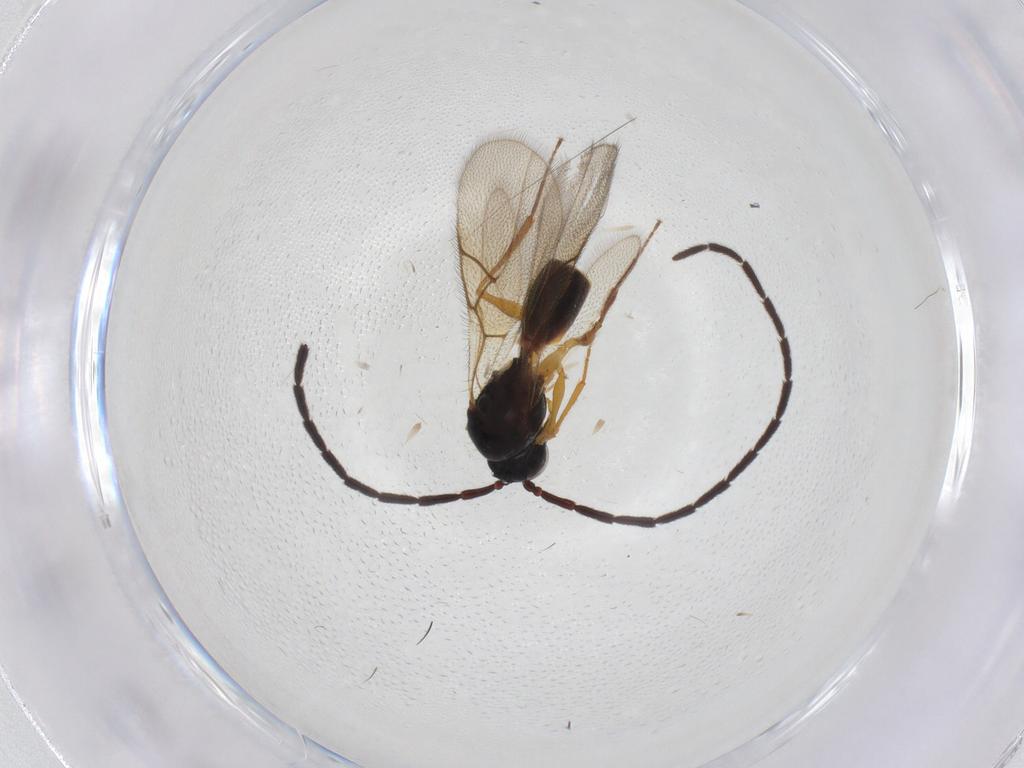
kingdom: Animalia
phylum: Arthropoda
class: Insecta
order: Hymenoptera
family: Figitidae
